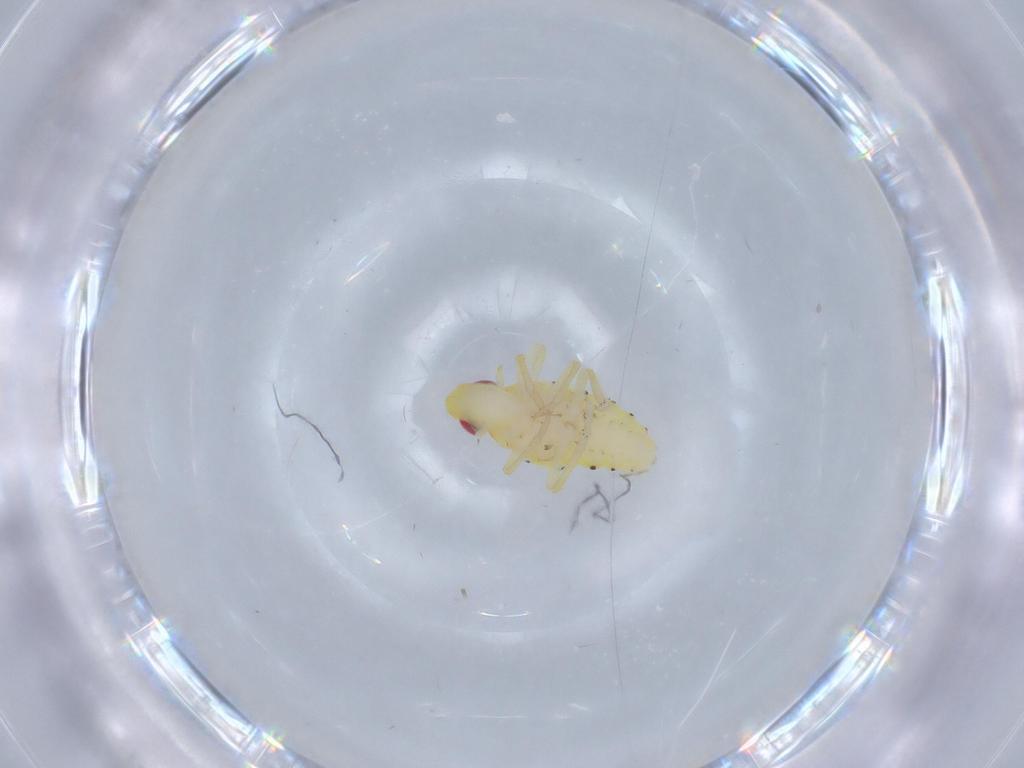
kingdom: Animalia
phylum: Arthropoda
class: Insecta
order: Hemiptera
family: Tropiduchidae
